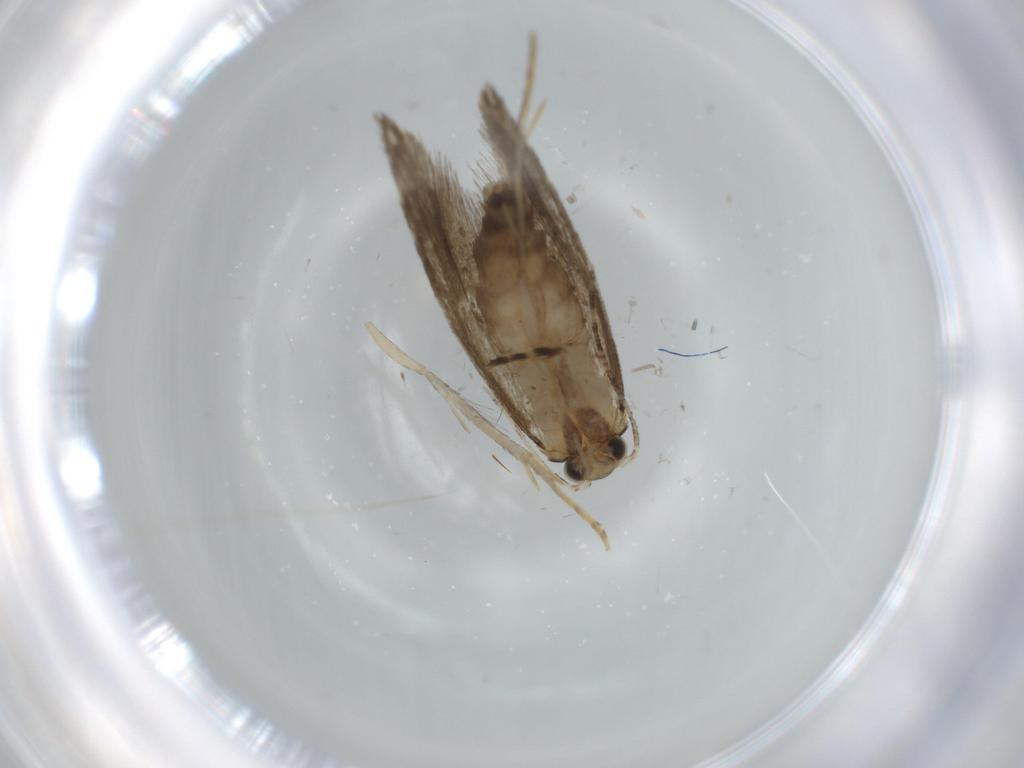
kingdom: Animalia
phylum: Arthropoda
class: Insecta
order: Lepidoptera
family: Tineidae
